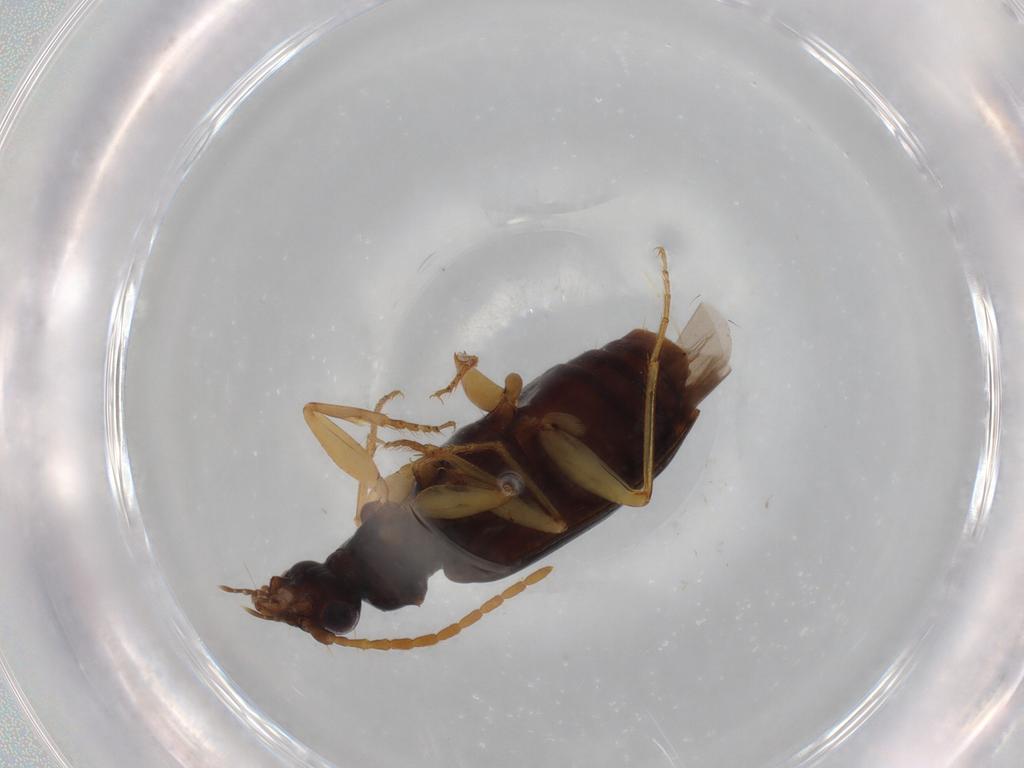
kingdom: Animalia
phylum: Arthropoda
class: Insecta
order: Coleoptera
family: Carabidae
